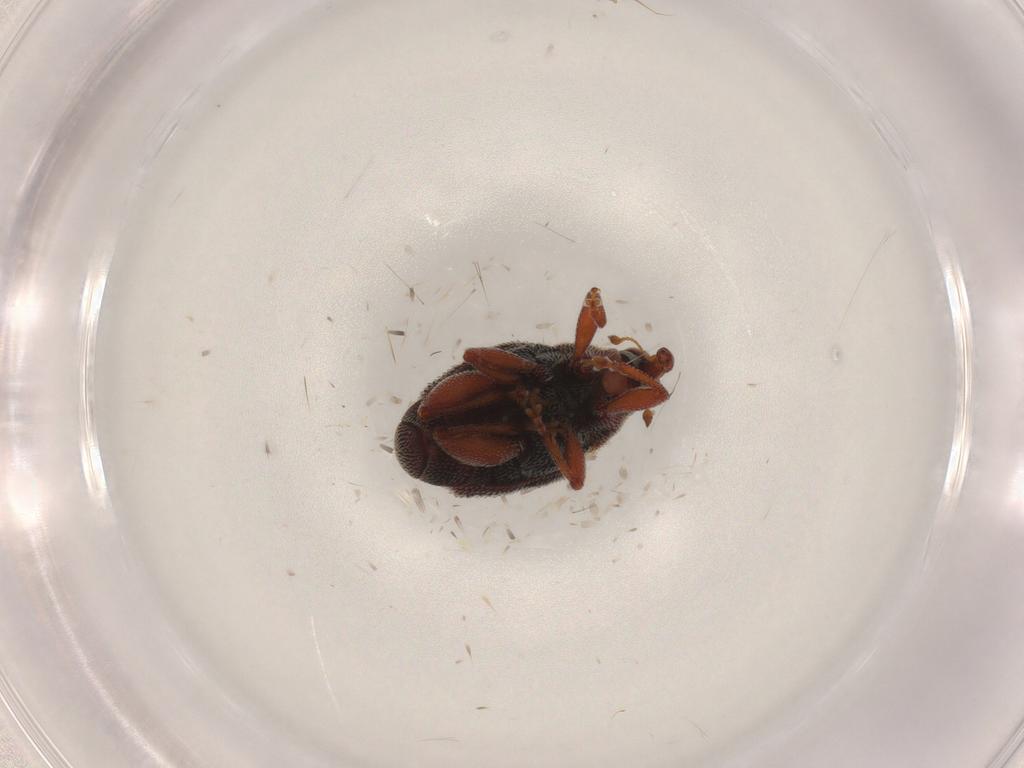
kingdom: Animalia
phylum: Arthropoda
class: Insecta
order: Coleoptera
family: Curculionidae
